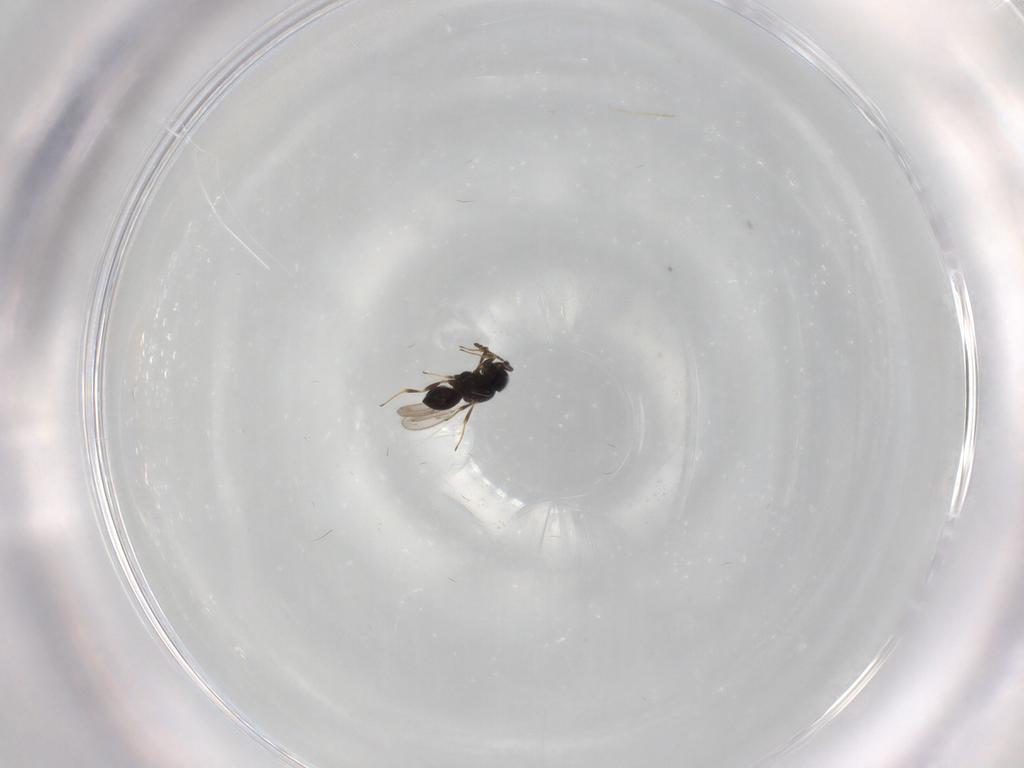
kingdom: Animalia
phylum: Arthropoda
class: Insecta
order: Hymenoptera
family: Scelionidae
